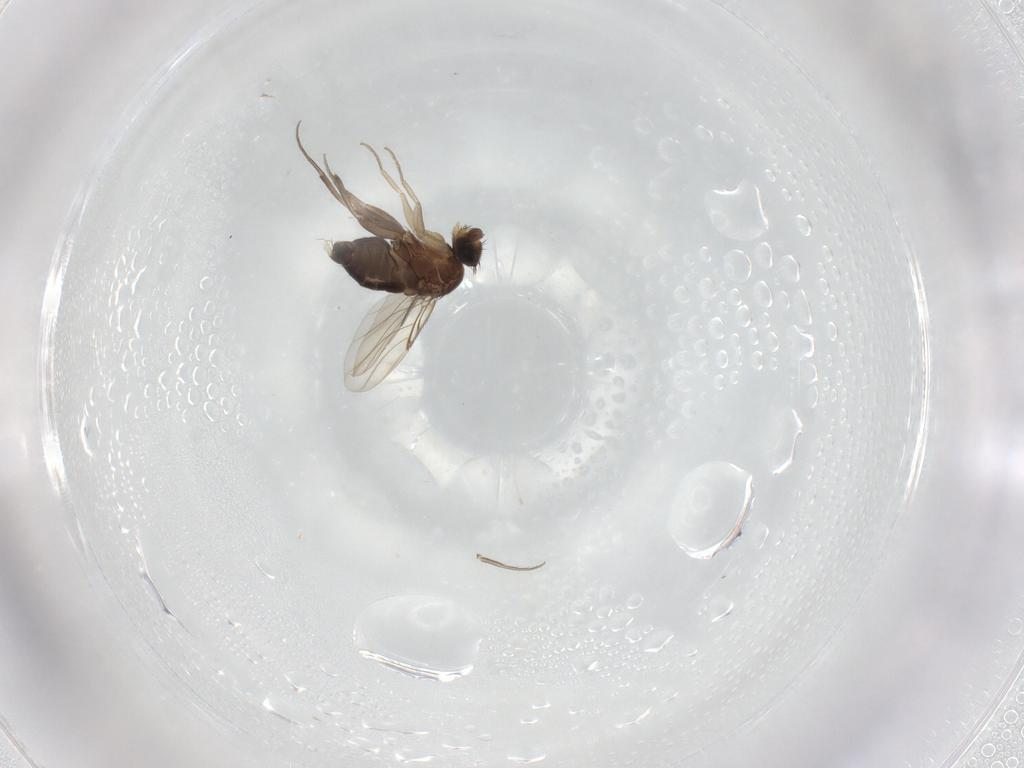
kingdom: Animalia
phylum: Arthropoda
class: Insecta
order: Diptera
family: Phoridae
